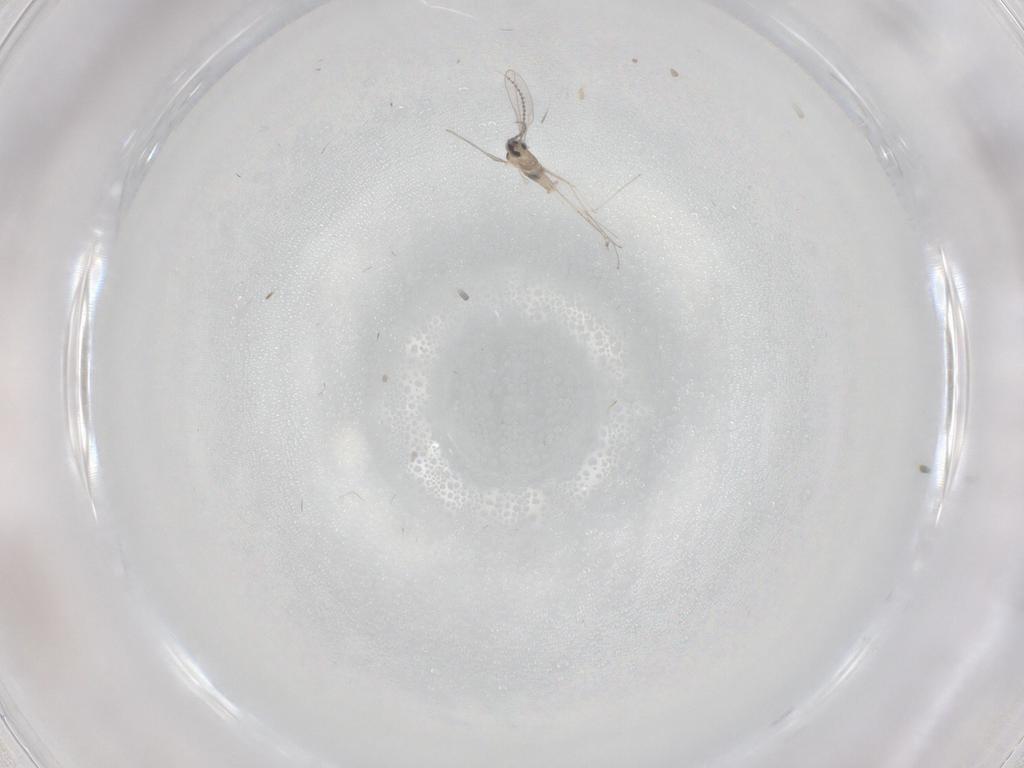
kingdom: Animalia
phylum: Arthropoda
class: Insecta
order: Diptera
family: Cecidomyiidae
